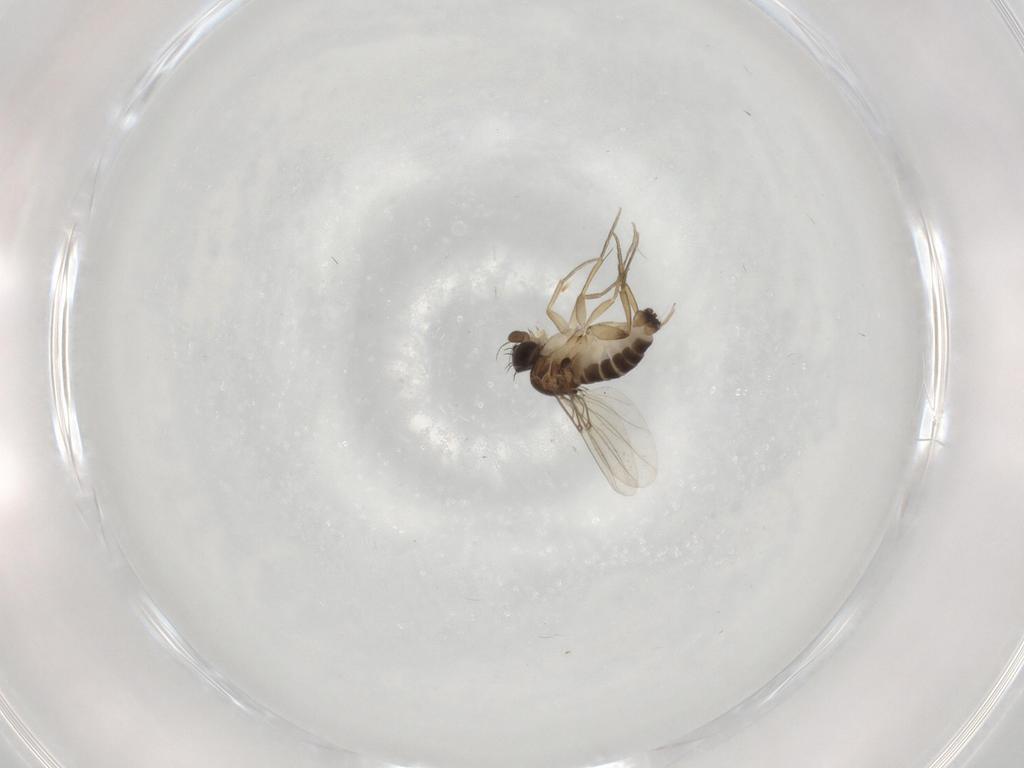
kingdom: Animalia
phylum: Arthropoda
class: Insecta
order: Diptera
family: Phoridae
